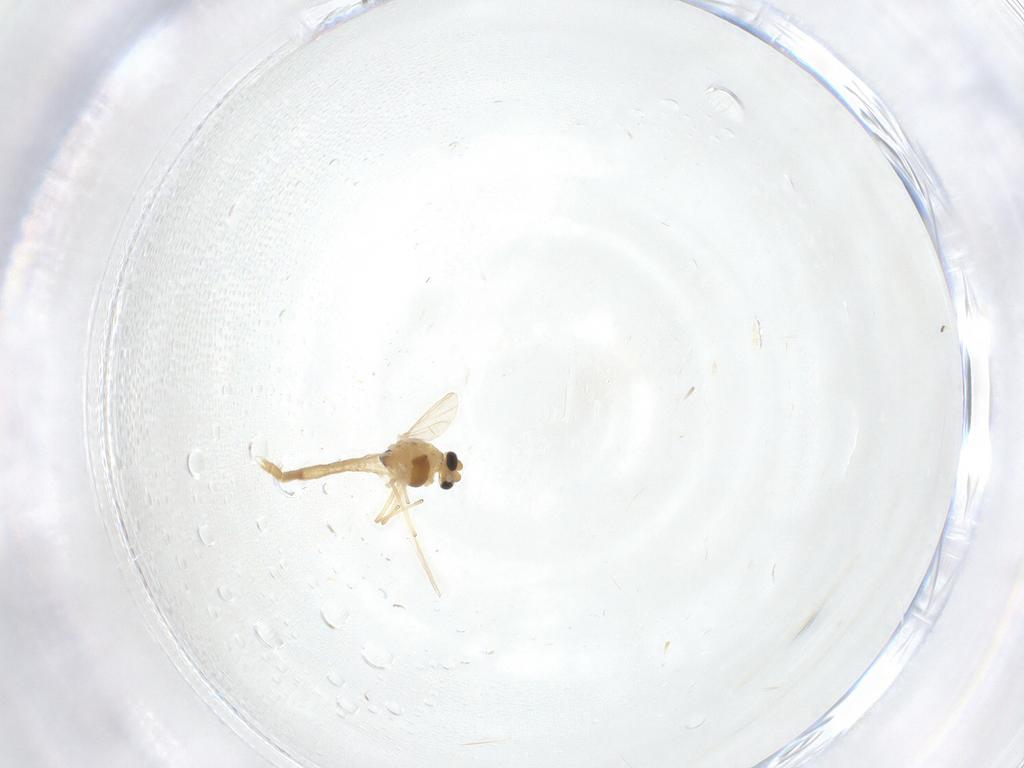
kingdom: Animalia
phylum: Arthropoda
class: Insecta
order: Diptera
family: Chironomidae
